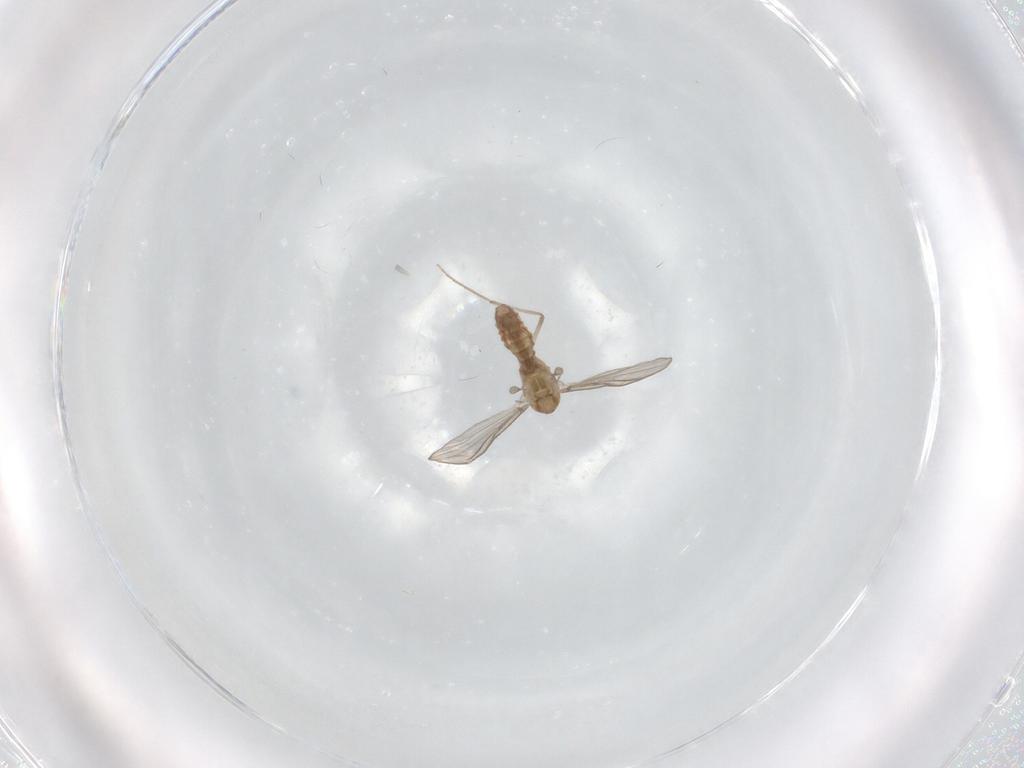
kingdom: Animalia
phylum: Arthropoda
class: Insecta
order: Diptera
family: Chironomidae
